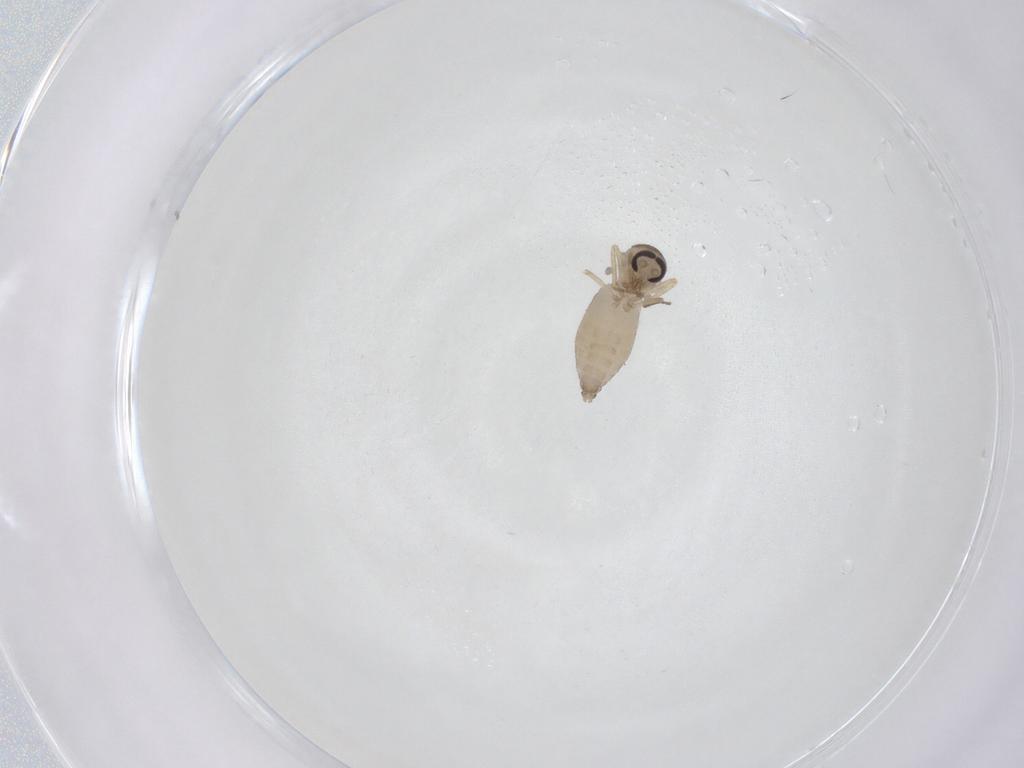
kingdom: Animalia
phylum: Arthropoda
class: Insecta
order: Diptera
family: Ceratopogonidae
